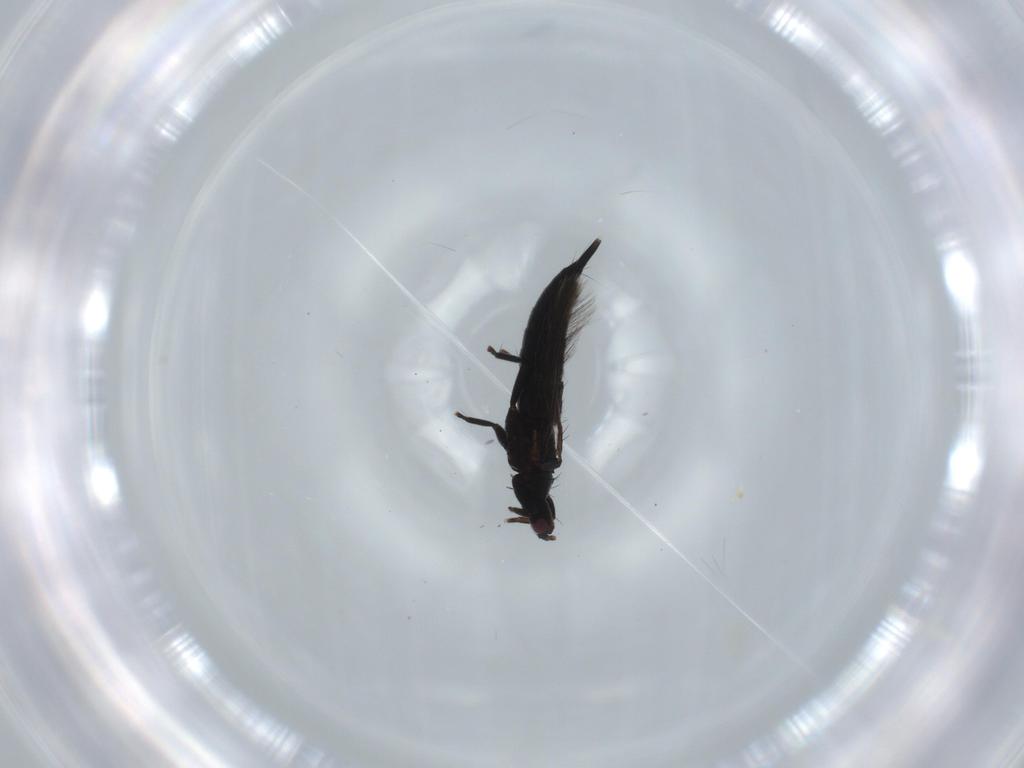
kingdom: Animalia
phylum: Arthropoda
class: Insecta
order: Thysanoptera
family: Phlaeothripidae
